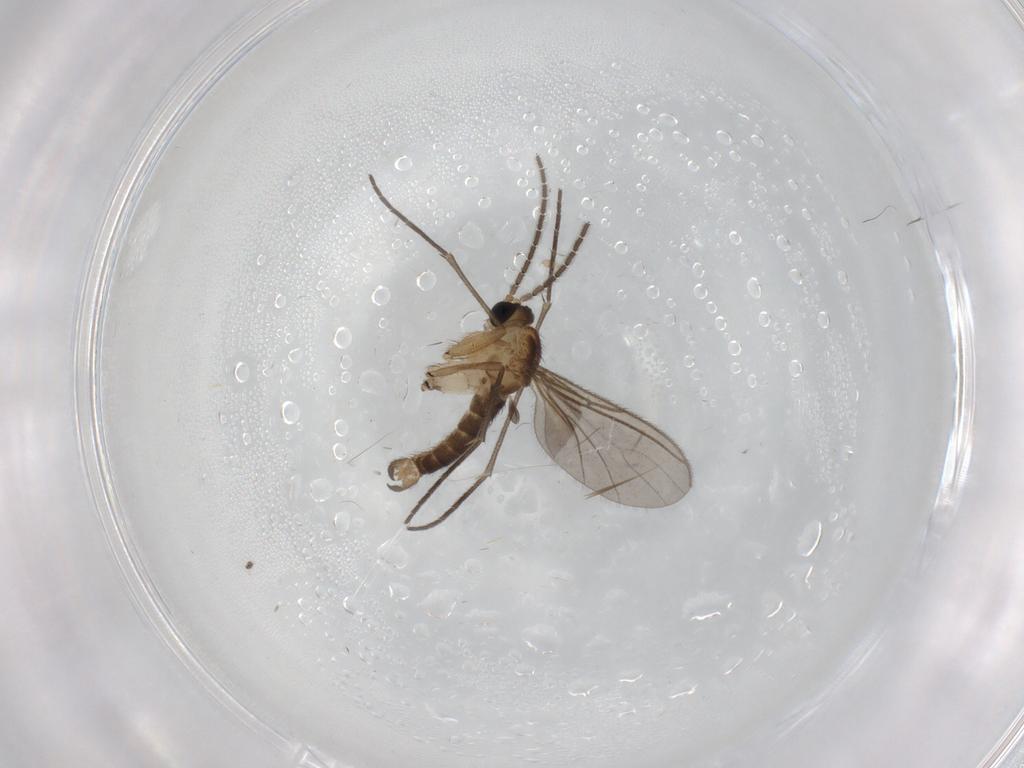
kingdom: Animalia
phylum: Arthropoda
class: Insecta
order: Diptera
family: Sciaridae
